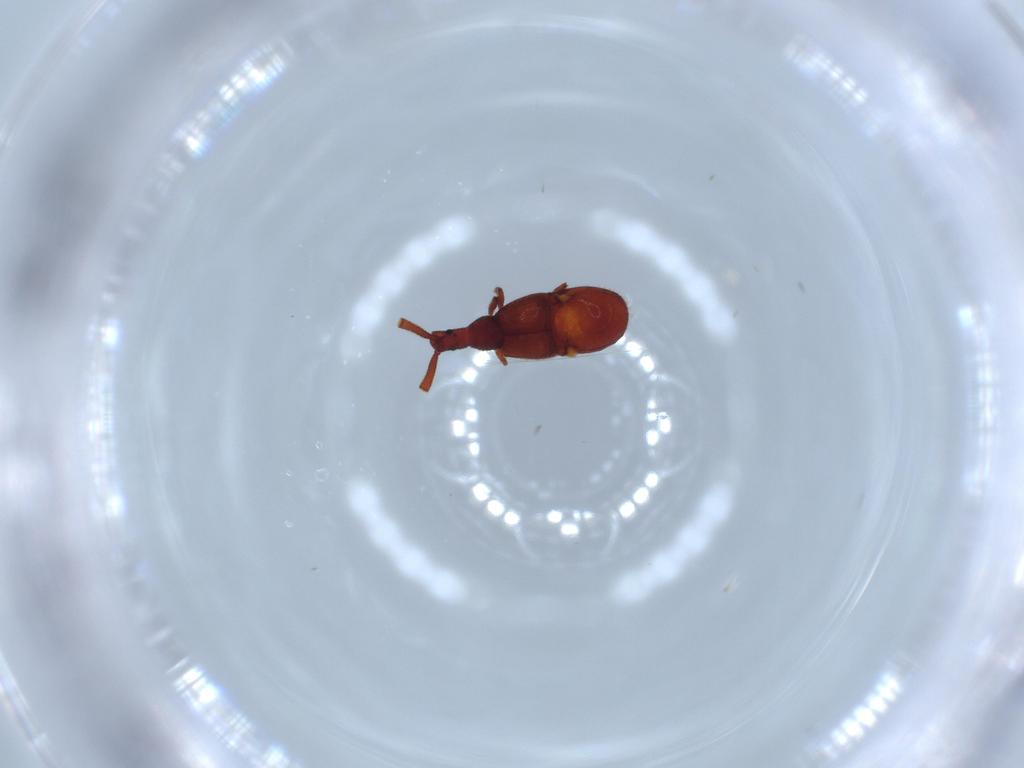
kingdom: Animalia
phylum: Arthropoda
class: Insecta
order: Coleoptera
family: Staphylinidae
